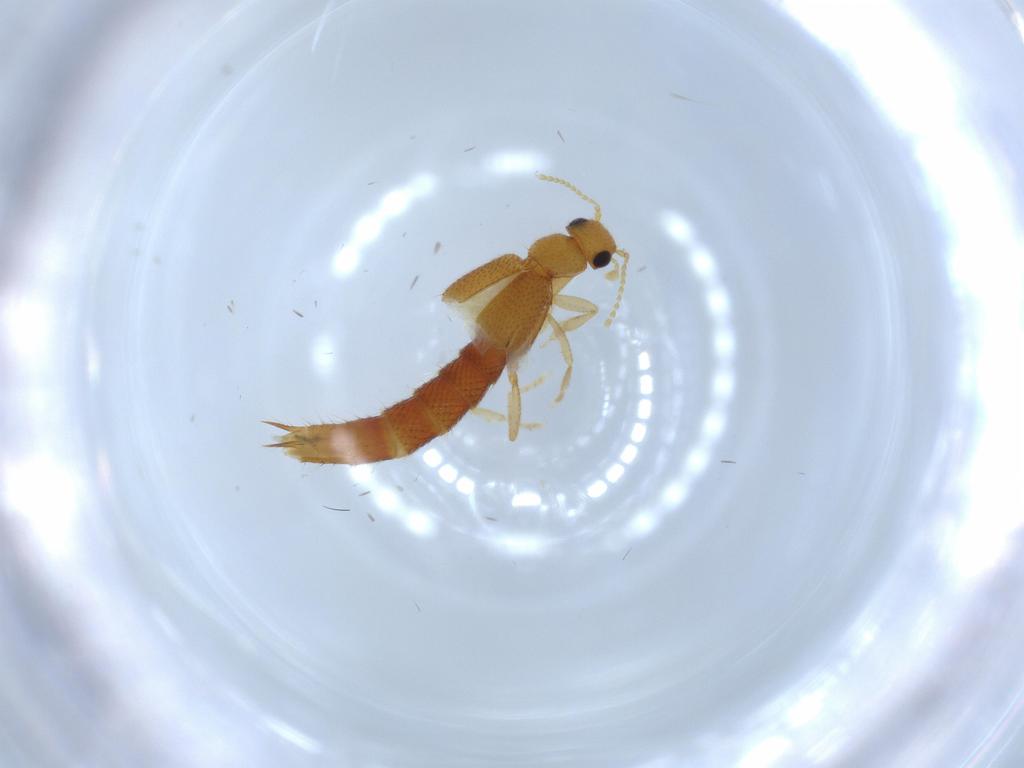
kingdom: Animalia
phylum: Arthropoda
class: Insecta
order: Coleoptera
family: Staphylinidae
